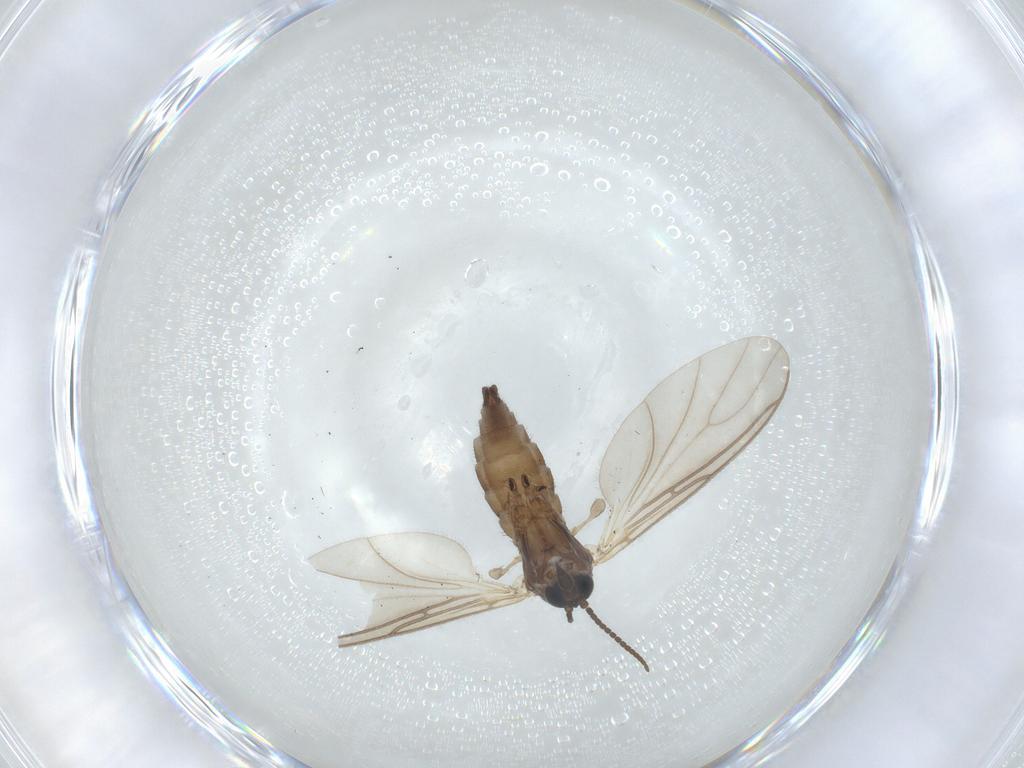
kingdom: Animalia
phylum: Arthropoda
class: Insecta
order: Diptera
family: Sciaridae
